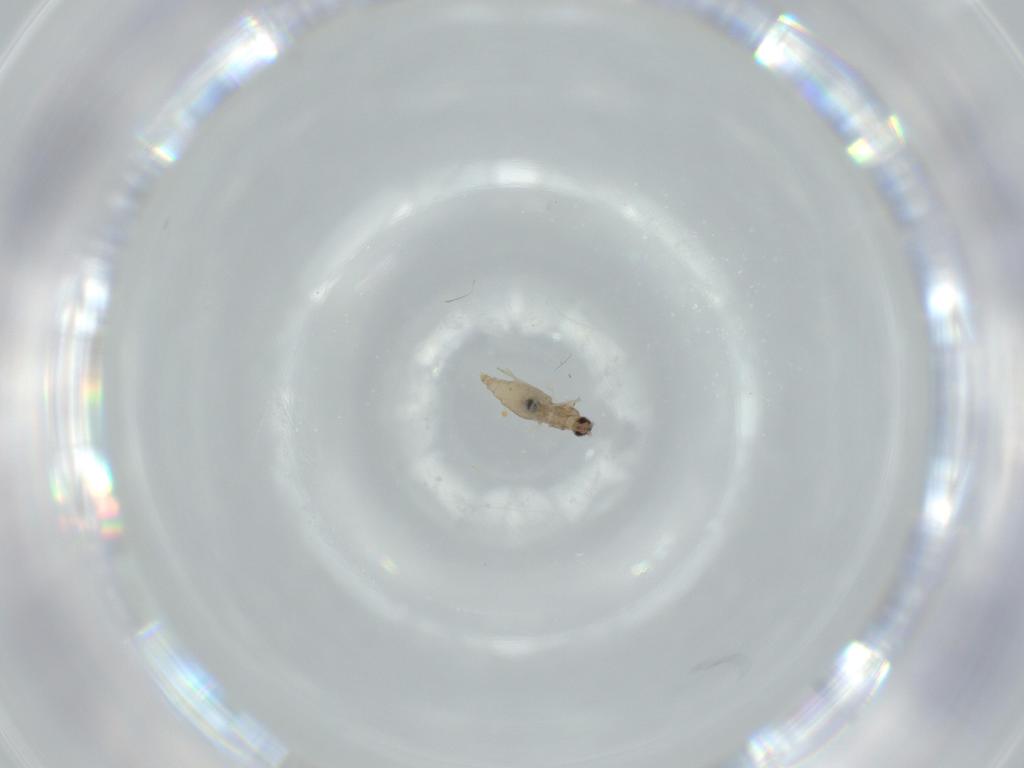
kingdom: Animalia
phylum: Arthropoda
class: Insecta
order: Diptera
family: Cecidomyiidae
